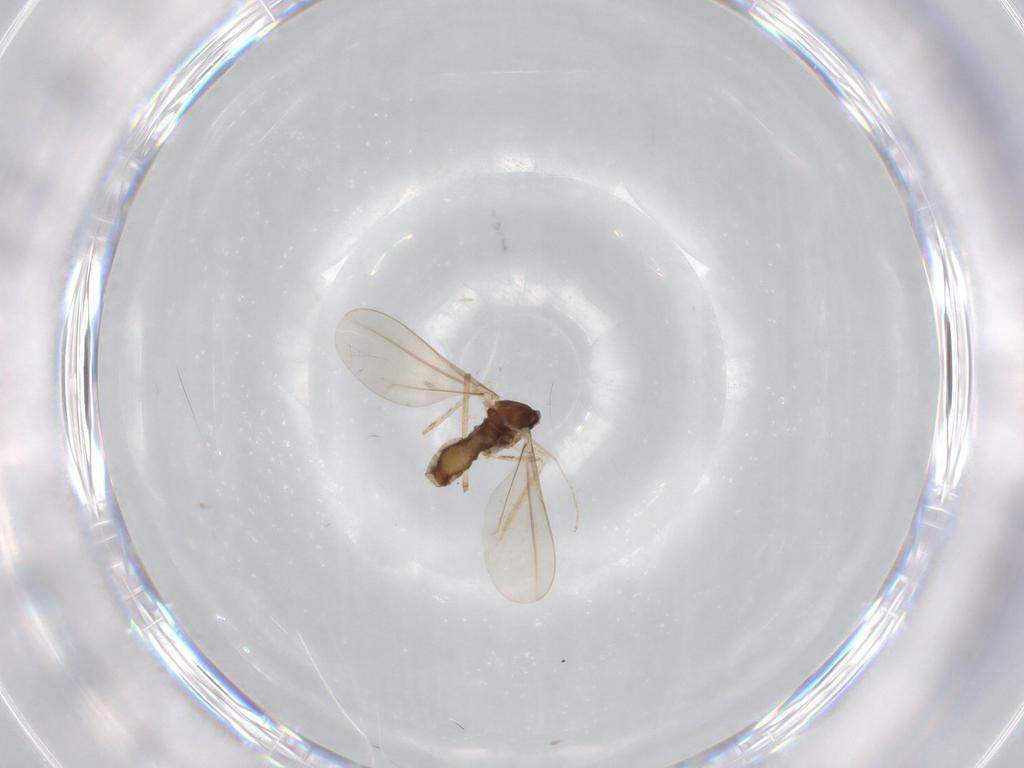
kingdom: Animalia
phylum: Arthropoda
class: Insecta
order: Diptera
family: Cecidomyiidae
